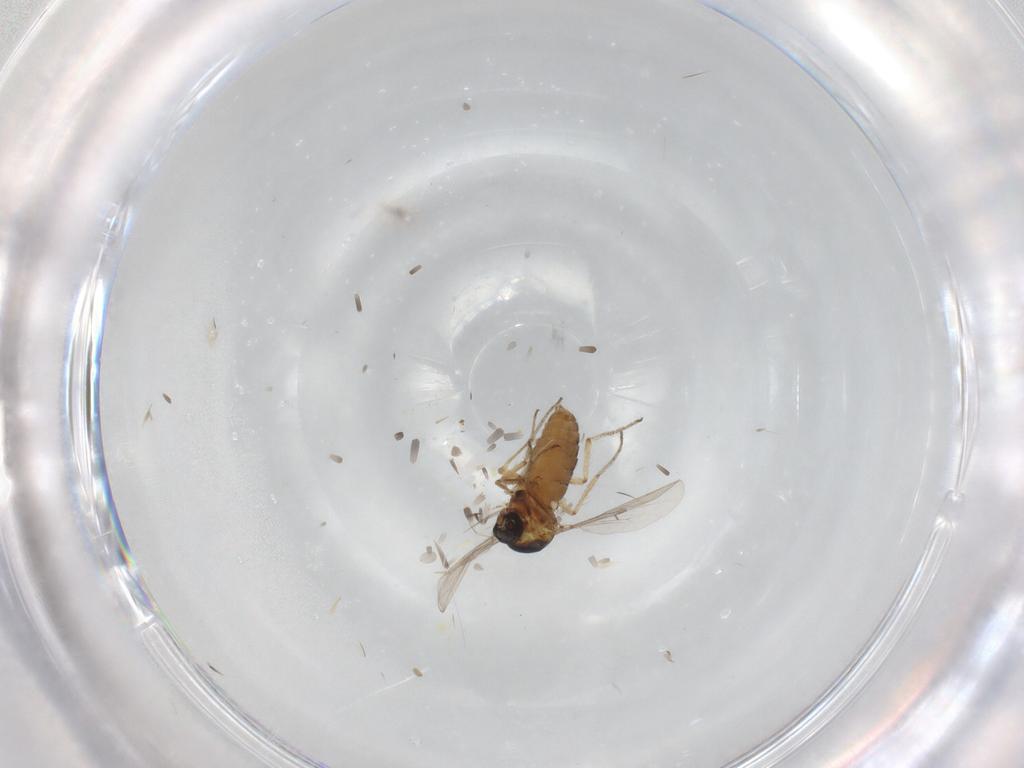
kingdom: Animalia
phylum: Arthropoda
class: Insecta
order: Diptera
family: Ceratopogonidae
